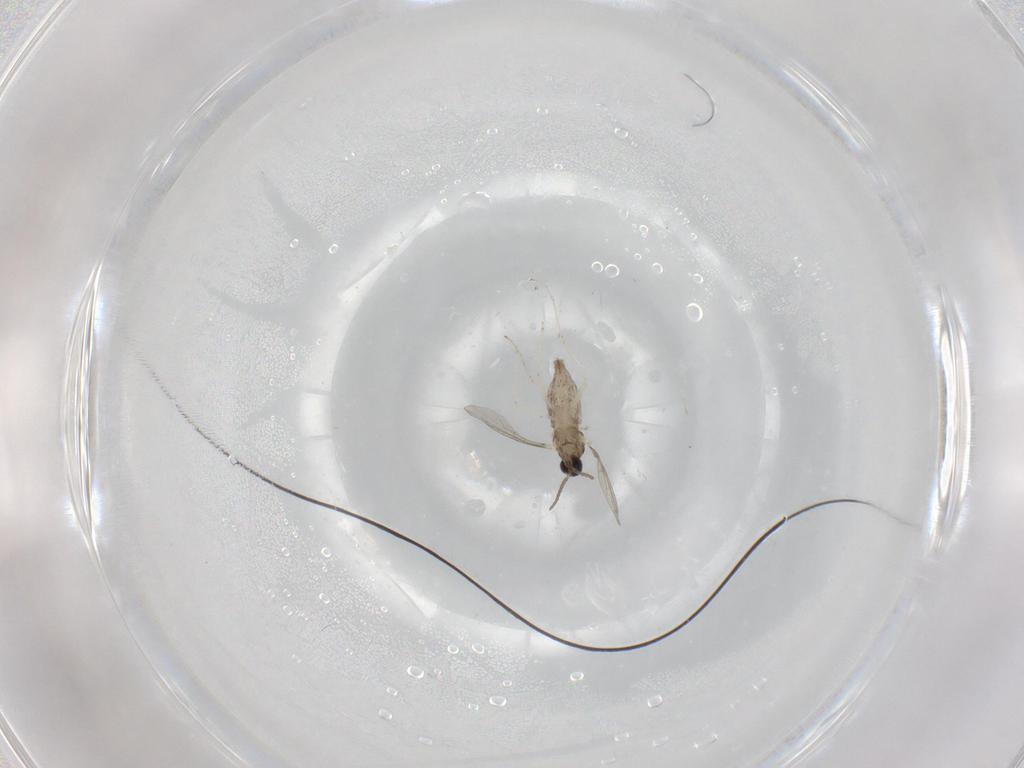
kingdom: Animalia
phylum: Arthropoda
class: Insecta
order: Diptera
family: Cecidomyiidae
